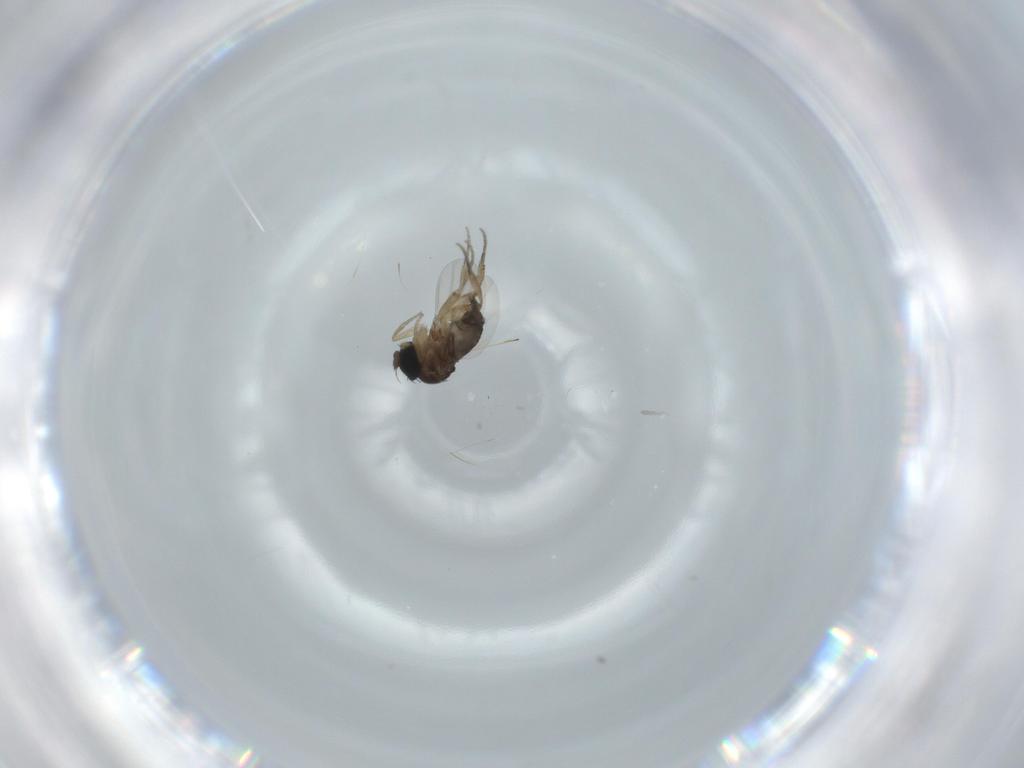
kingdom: Animalia
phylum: Arthropoda
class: Insecta
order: Diptera
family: Phoridae
